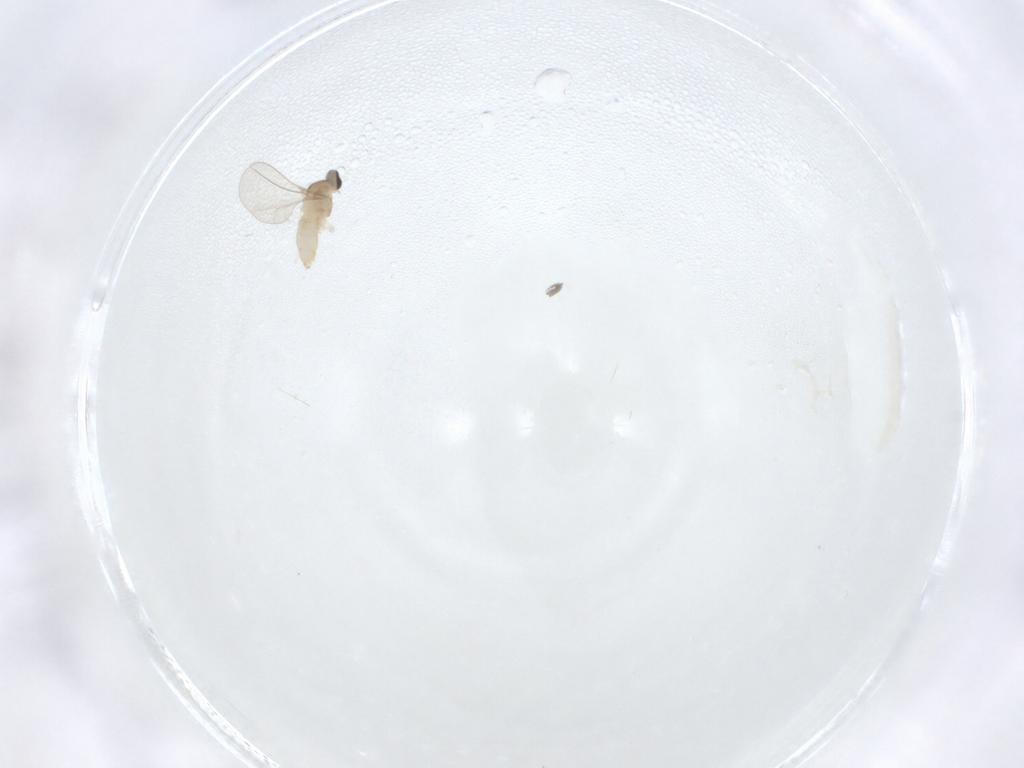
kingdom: Animalia
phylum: Arthropoda
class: Insecta
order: Diptera
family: Cecidomyiidae
